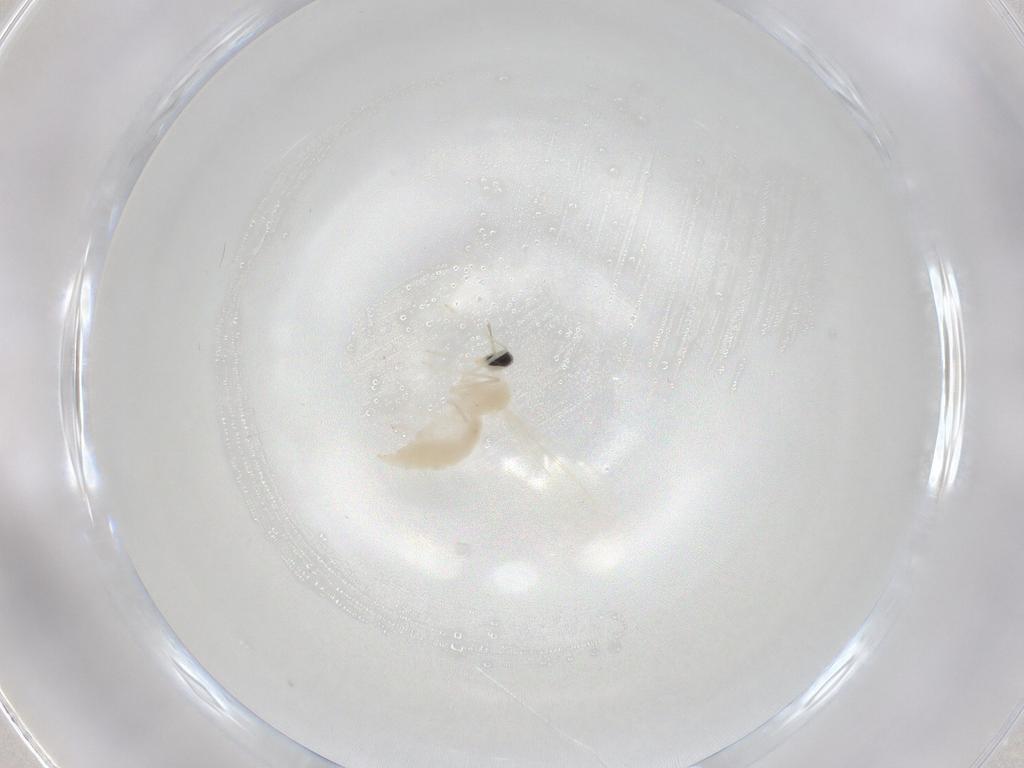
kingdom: Animalia
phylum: Arthropoda
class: Insecta
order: Diptera
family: Cecidomyiidae
